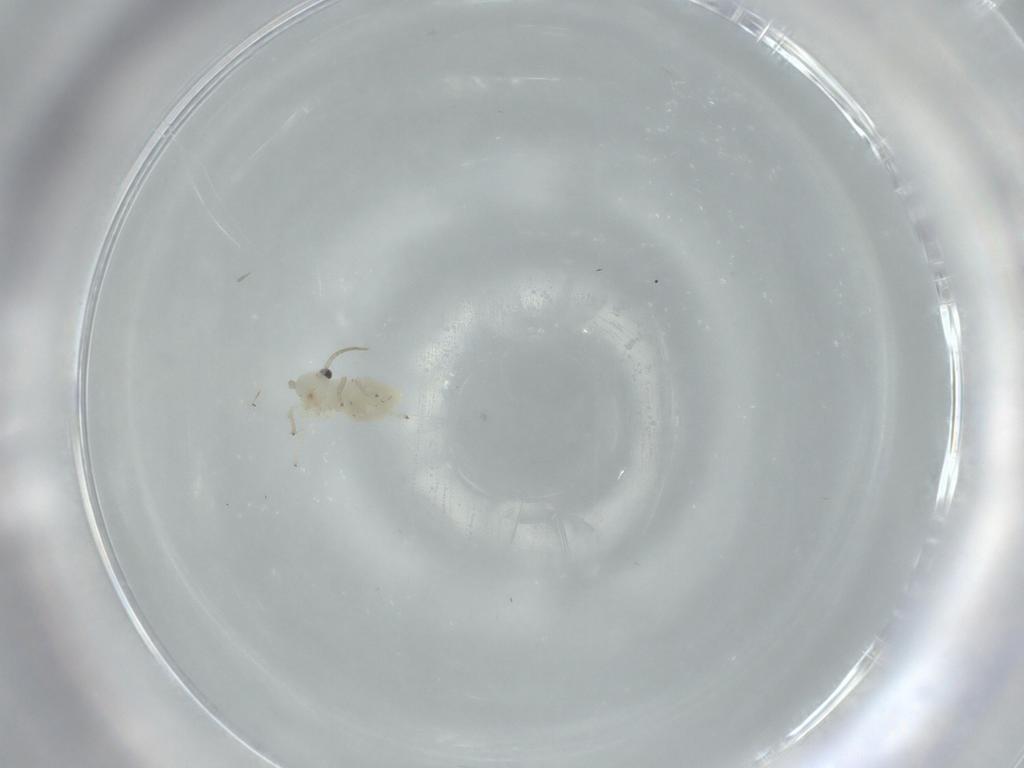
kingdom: Animalia
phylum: Arthropoda
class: Insecta
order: Psocodea
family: Caeciliusidae
